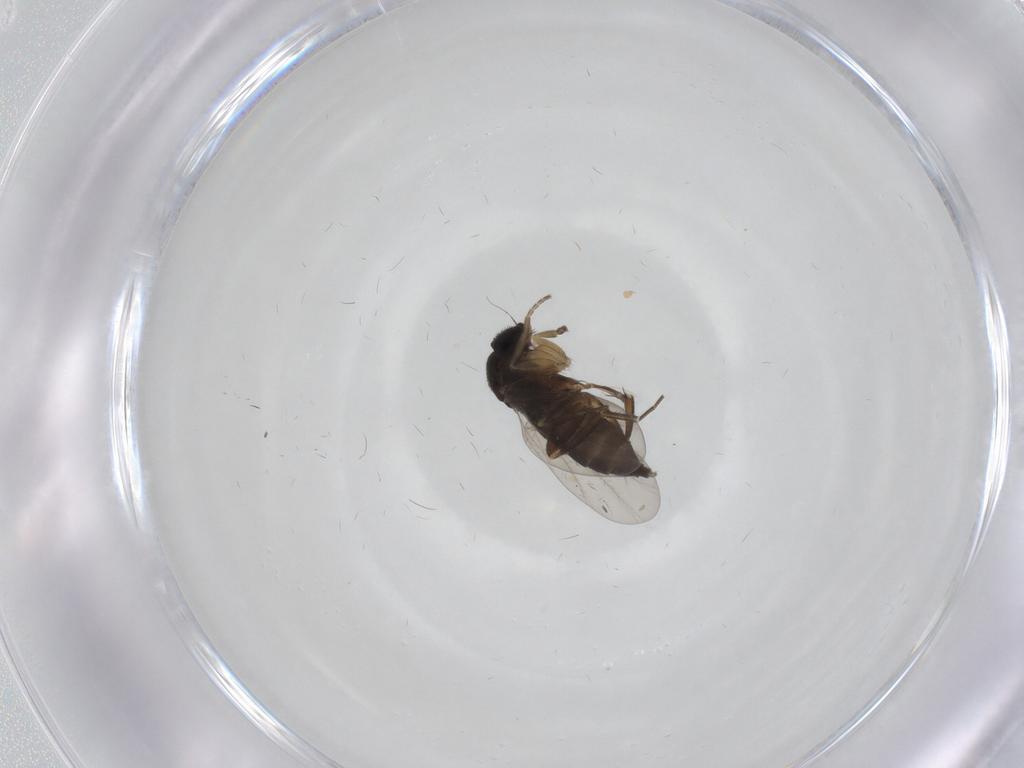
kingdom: Animalia
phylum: Arthropoda
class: Insecta
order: Diptera
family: Phoridae
